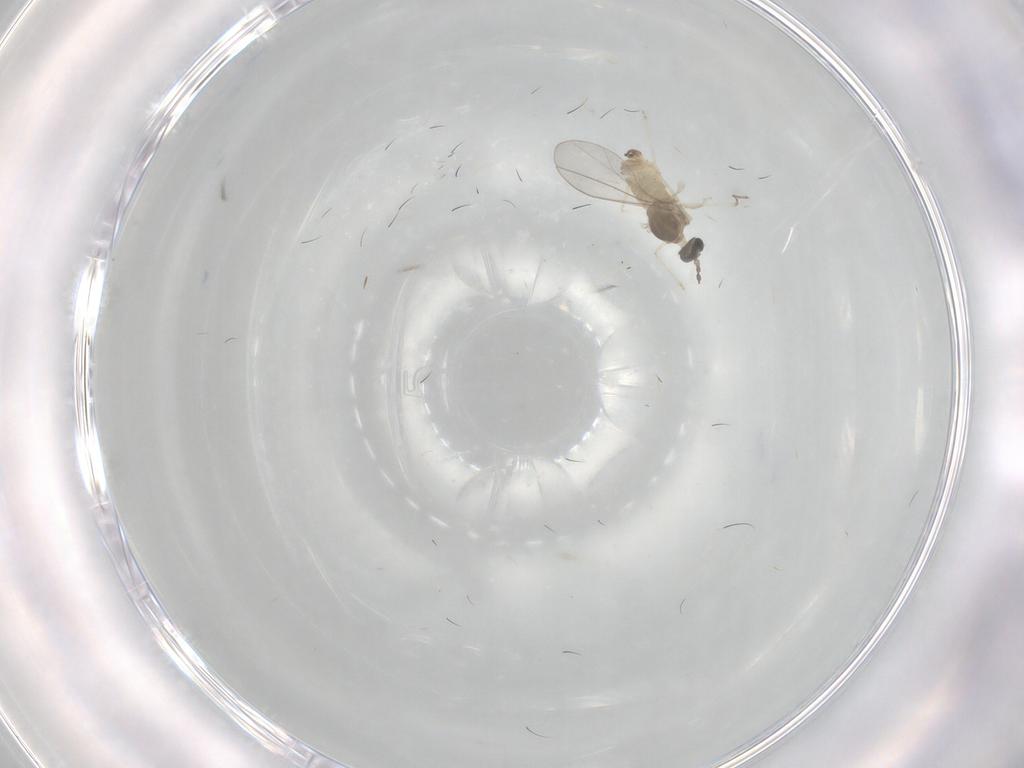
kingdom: Animalia
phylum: Arthropoda
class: Insecta
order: Diptera
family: Cecidomyiidae
